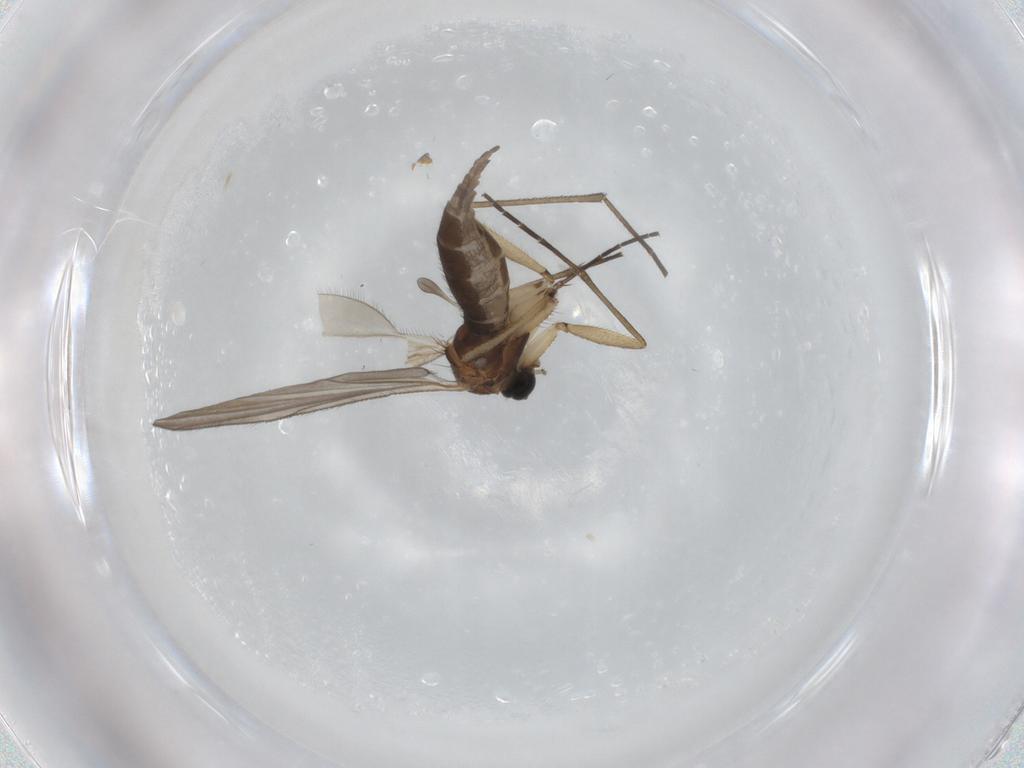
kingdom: Animalia
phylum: Arthropoda
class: Insecta
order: Diptera
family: Sciaridae
